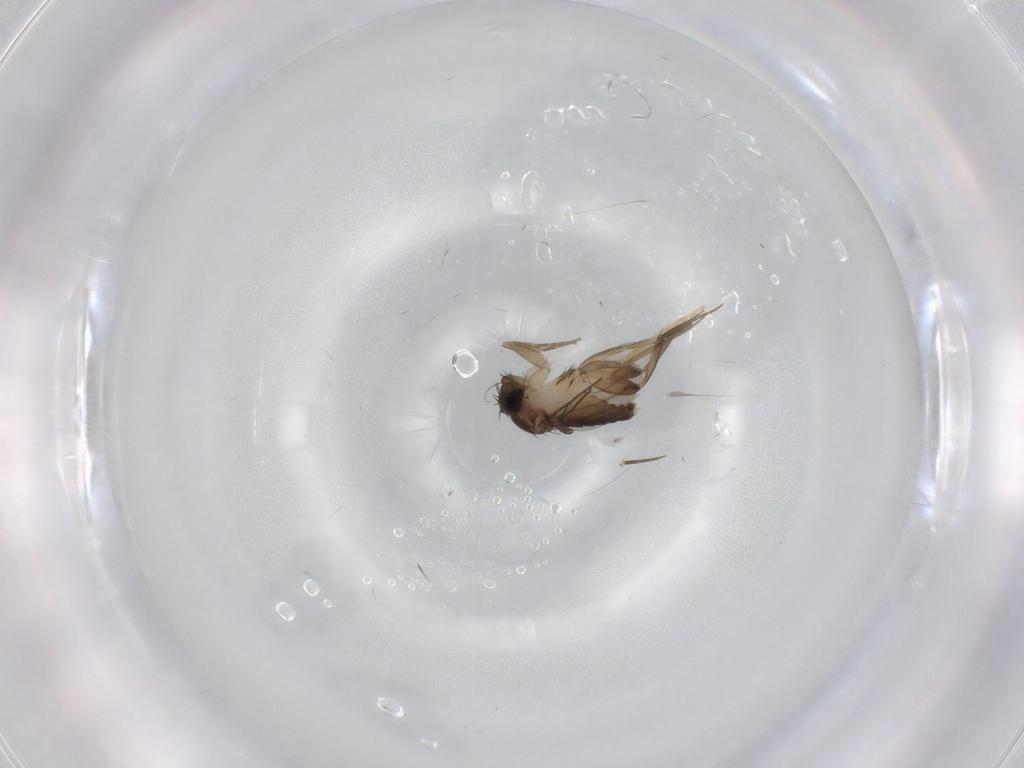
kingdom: Animalia
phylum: Arthropoda
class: Insecta
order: Diptera
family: Phoridae
